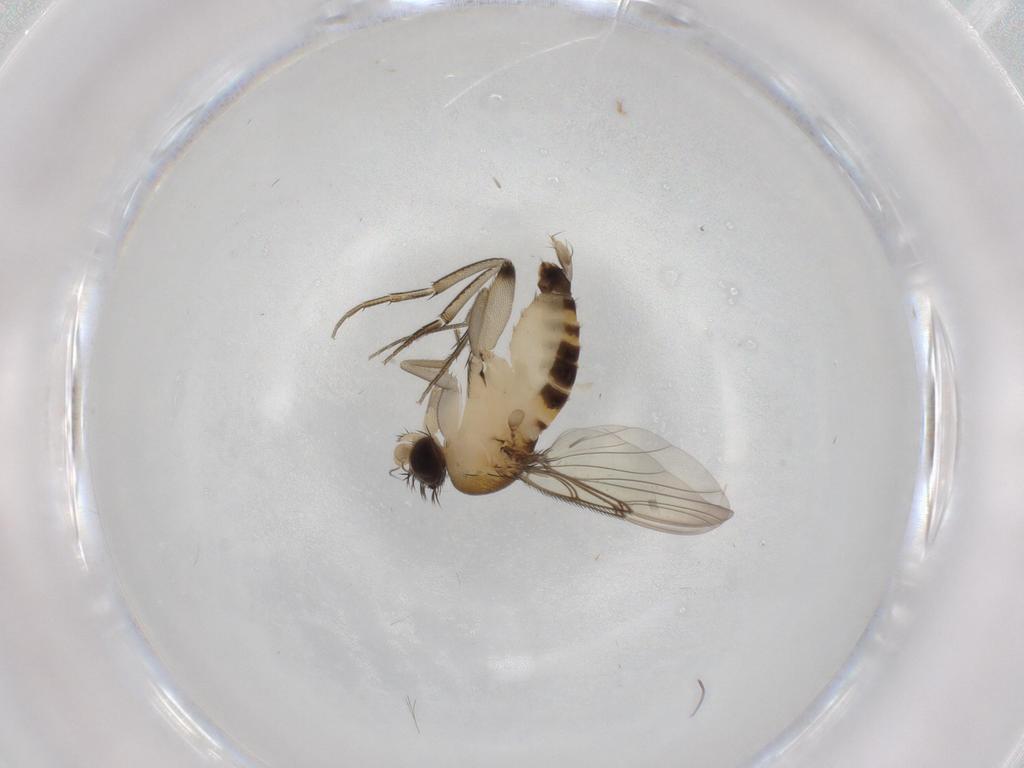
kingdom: Animalia
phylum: Arthropoda
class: Insecta
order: Diptera
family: Phoridae
